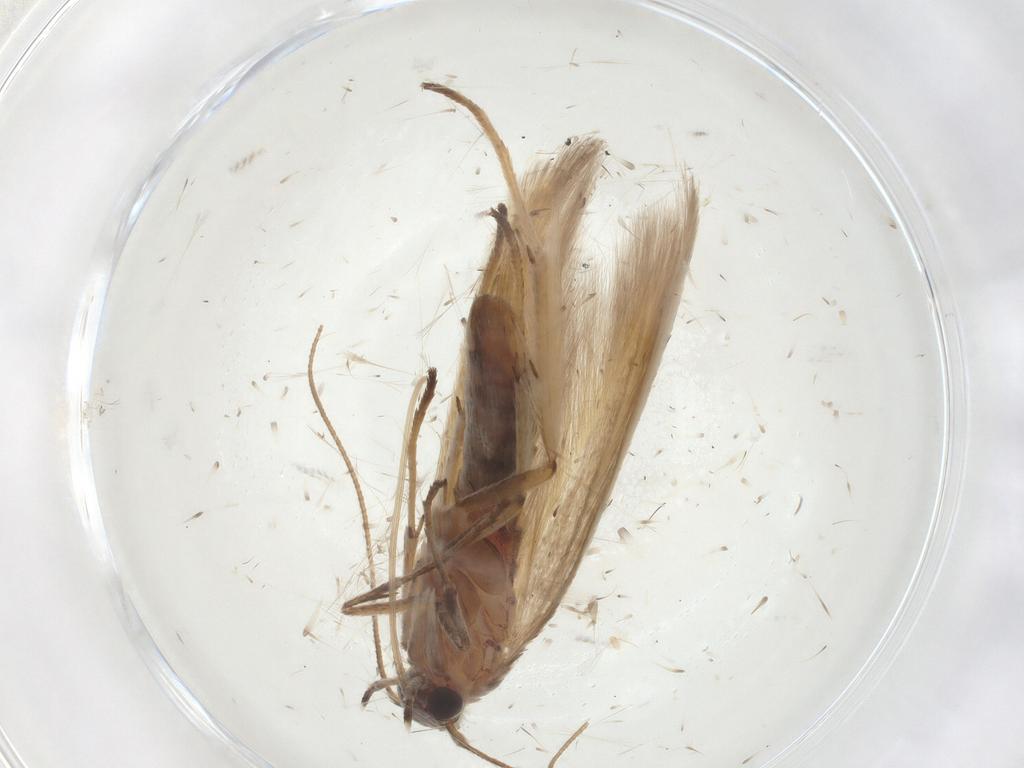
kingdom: Animalia
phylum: Arthropoda
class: Insecta
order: Lepidoptera
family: Scythrididae
